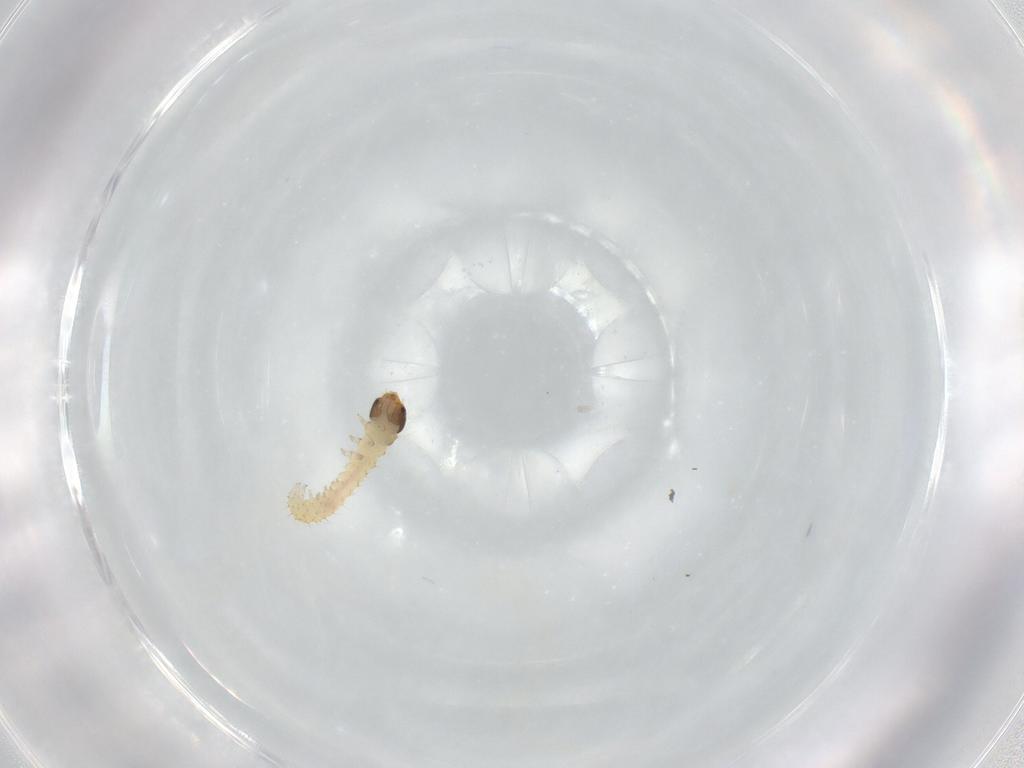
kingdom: Animalia
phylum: Arthropoda
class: Insecta
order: Lepidoptera
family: Crambidae
